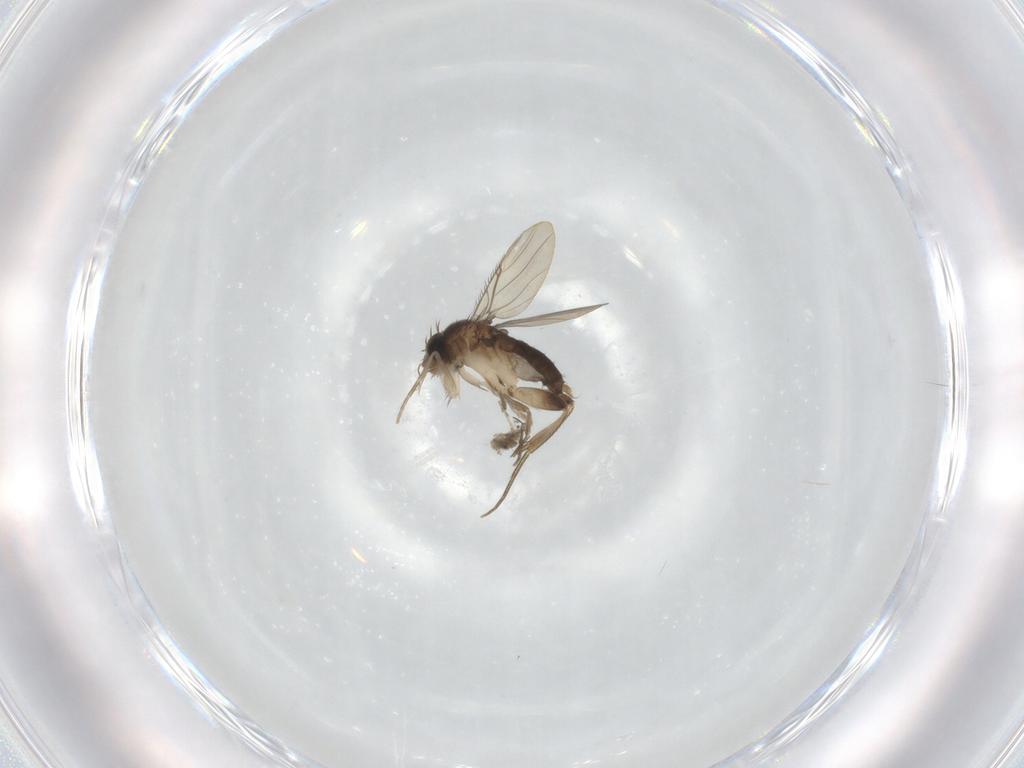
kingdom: Animalia
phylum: Arthropoda
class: Insecta
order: Diptera
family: Phoridae
